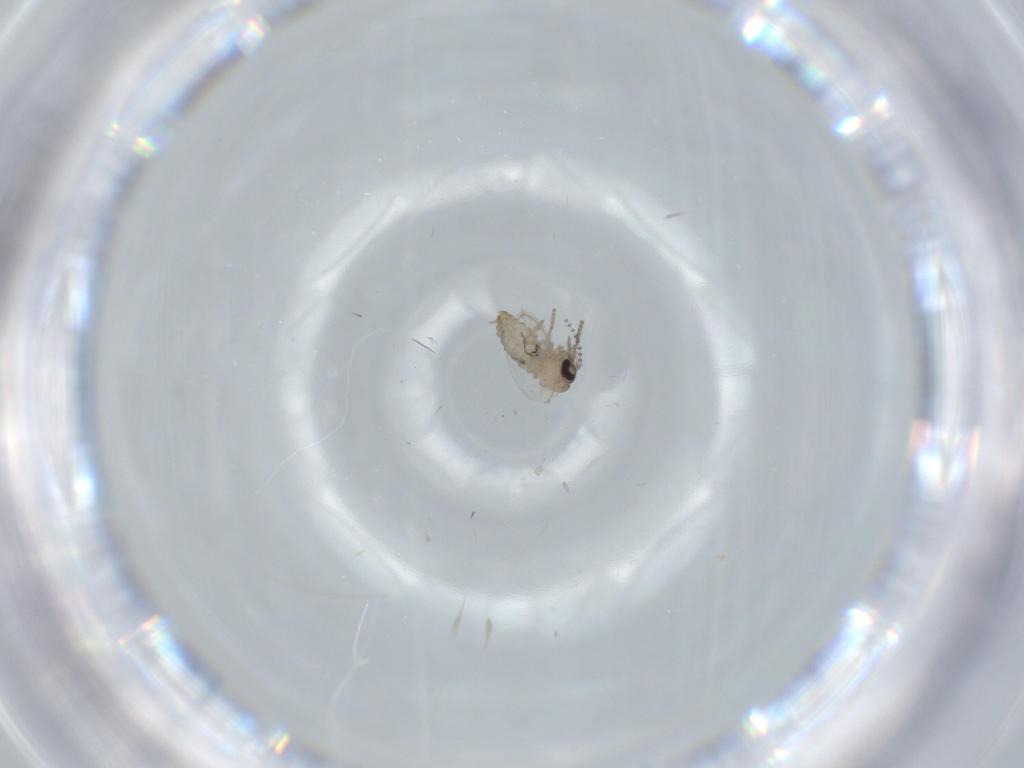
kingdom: Animalia
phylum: Arthropoda
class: Insecta
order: Diptera
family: Psychodidae
